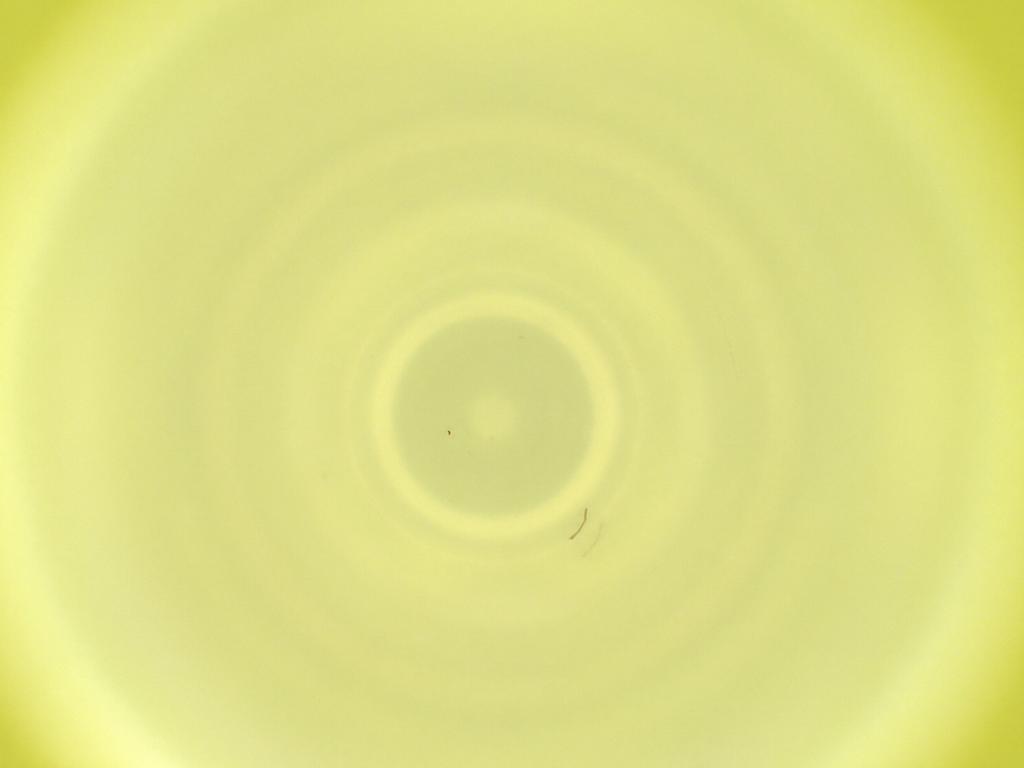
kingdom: Animalia
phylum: Arthropoda
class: Insecta
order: Diptera
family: Cecidomyiidae
